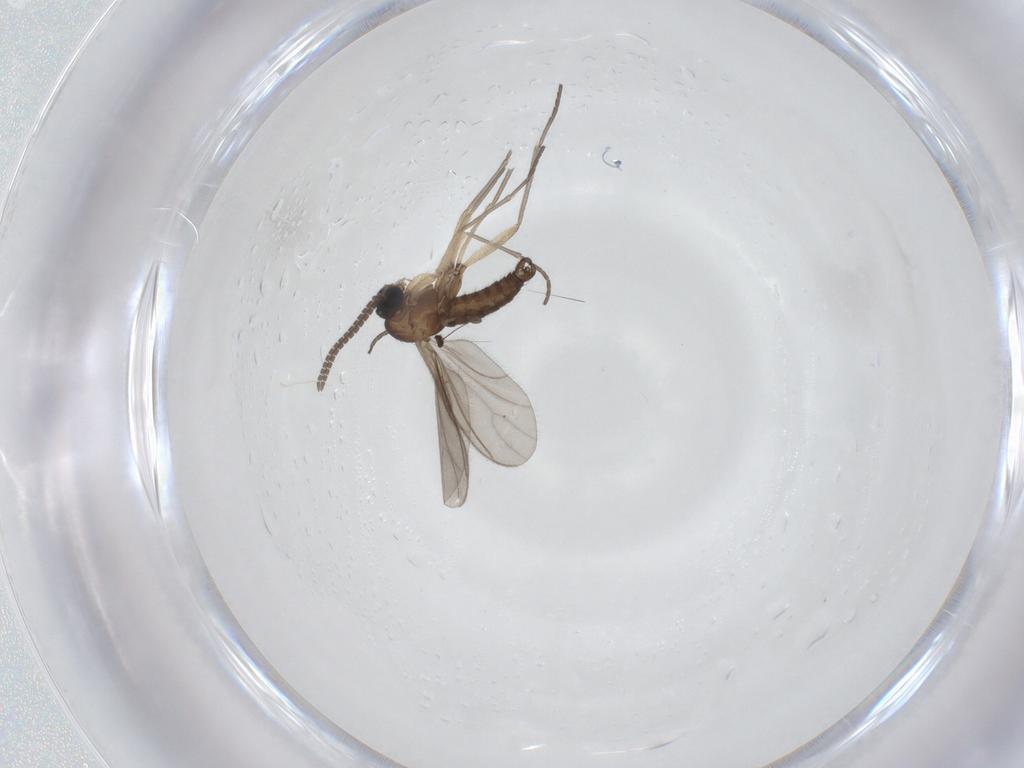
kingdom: Animalia
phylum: Arthropoda
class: Insecta
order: Diptera
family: Sciaridae
